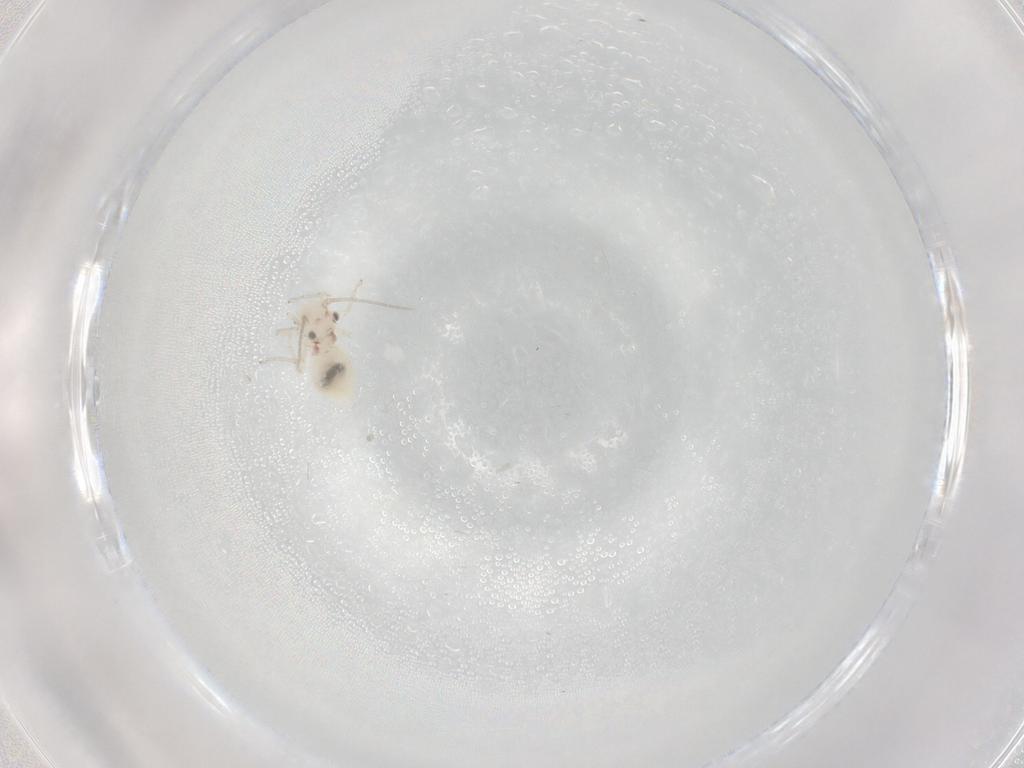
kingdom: Animalia
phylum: Arthropoda
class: Insecta
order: Psocodea
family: Caeciliusidae
